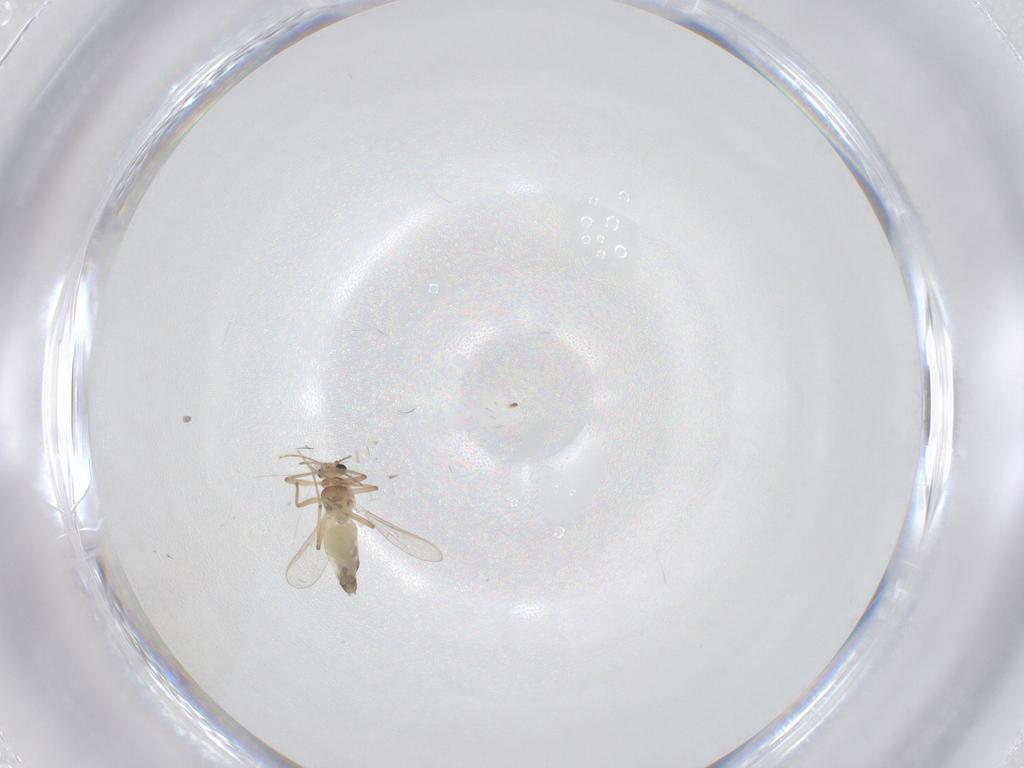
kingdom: Animalia
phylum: Arthropoda
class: Insecta
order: Diptera
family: Chironomidae
